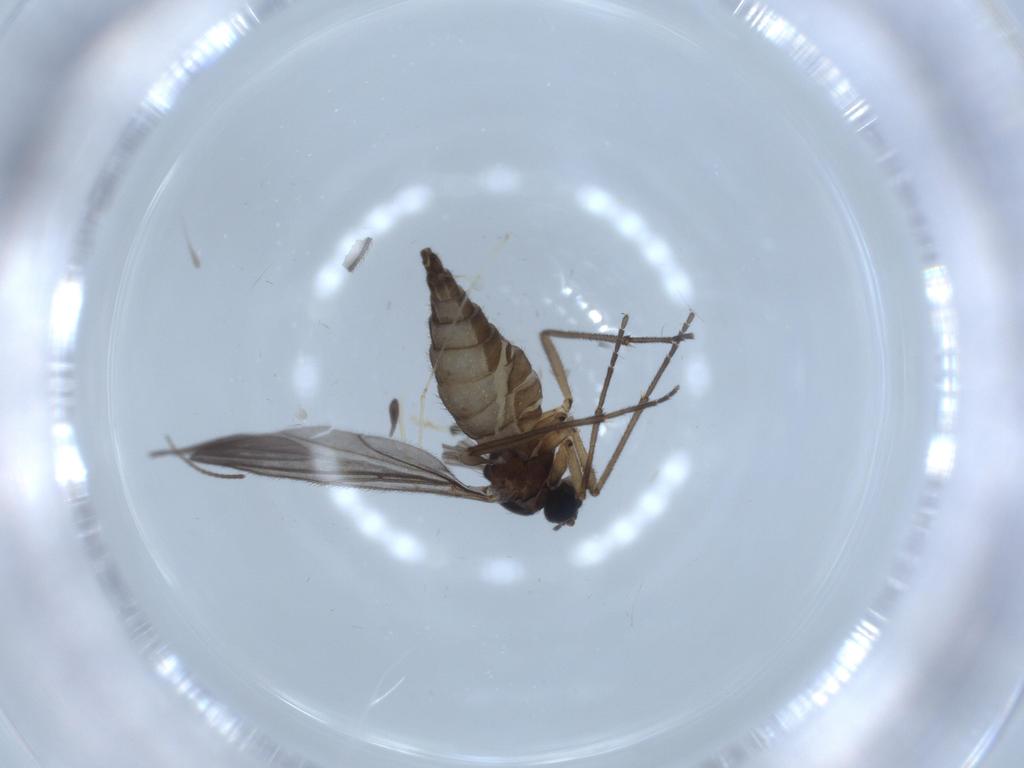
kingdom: Animalia
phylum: Arthropoda
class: Insecta
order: Diptera
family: Sciaridae
